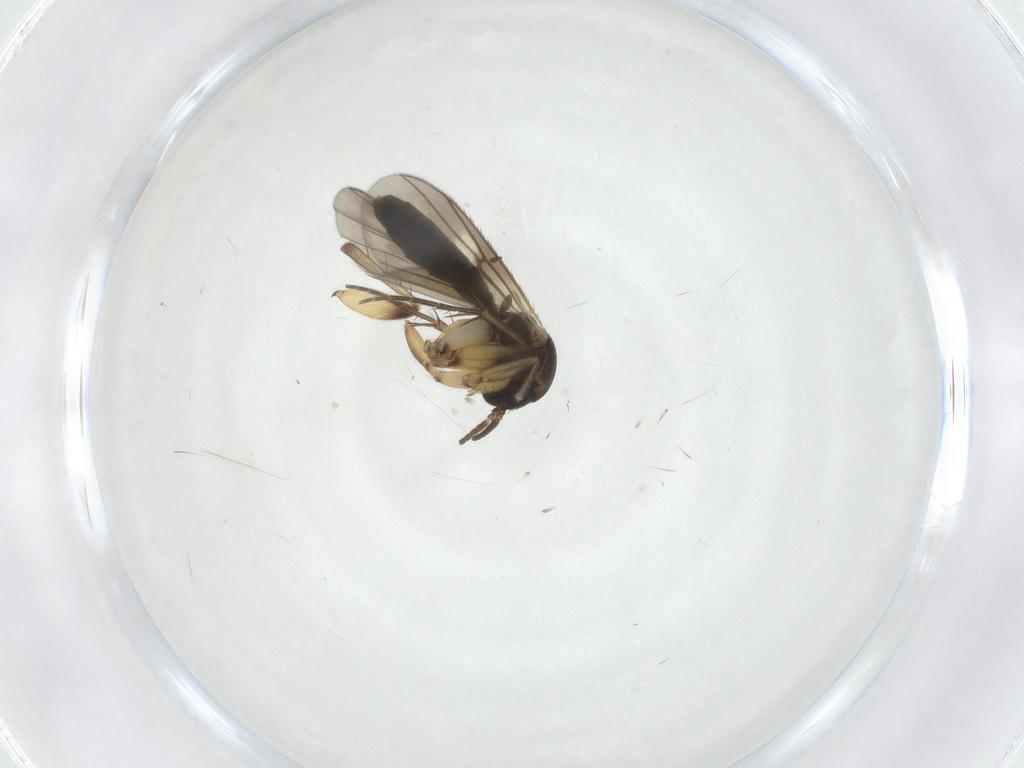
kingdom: Animalia
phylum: Arthropoda
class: Insecta
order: Diptera
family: Mycetophilidae
